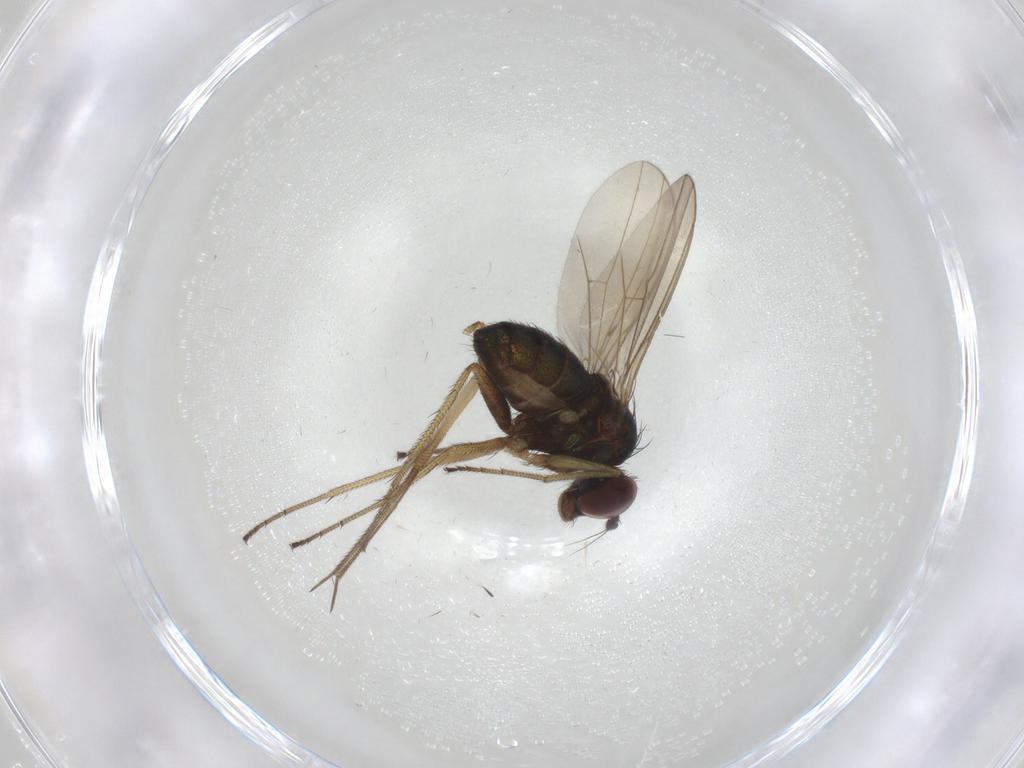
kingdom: Animalia
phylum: Arthropoda
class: Insecta
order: Diptera
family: Dolichopodidae
